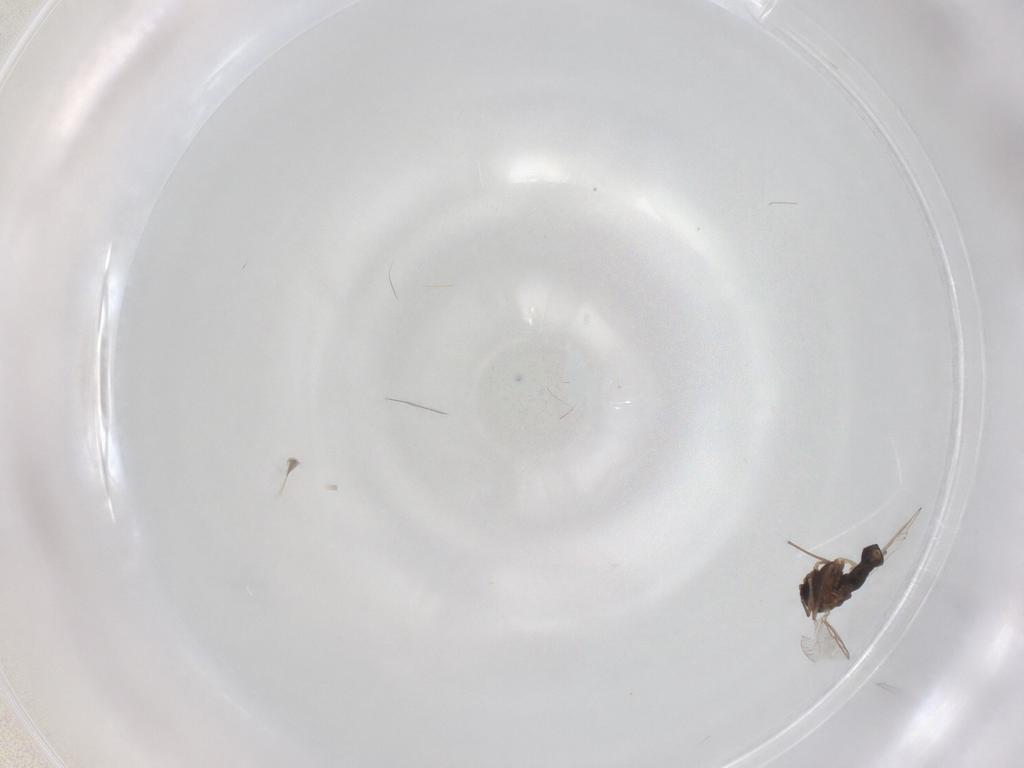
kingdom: Animalia
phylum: Arthropoda
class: Insecta
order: Diptera
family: Chironomidae
